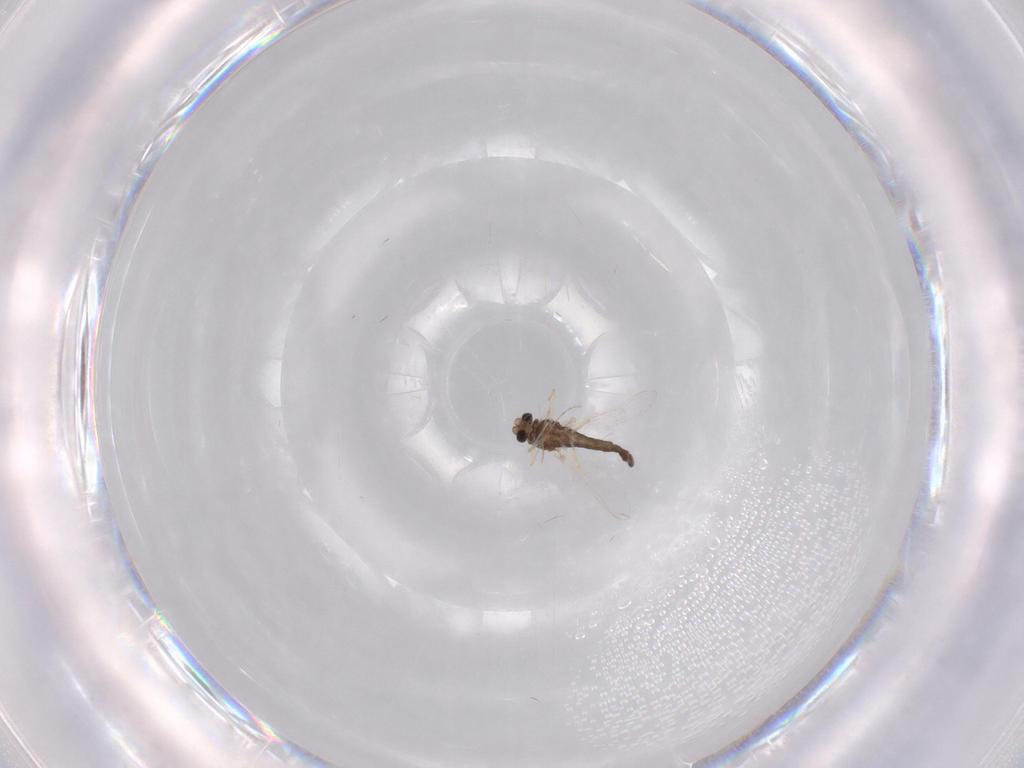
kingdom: Animalia
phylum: Arthropoda
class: Insecta
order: Diptera
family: Chironomidae
